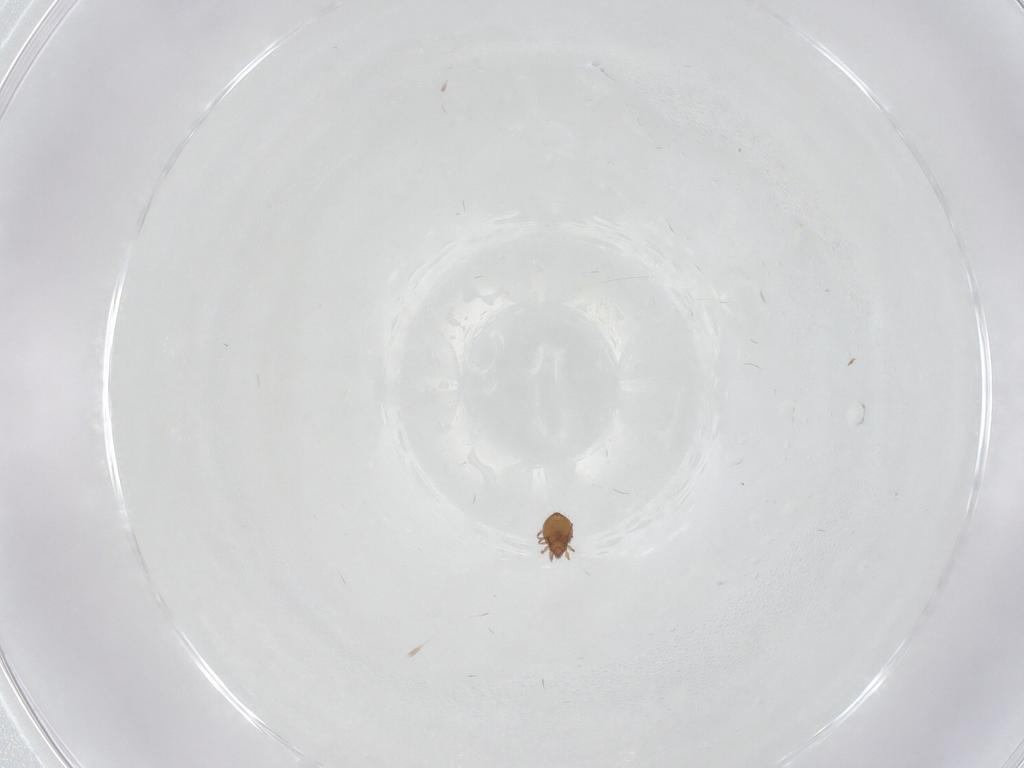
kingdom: Animalia
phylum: Arthropoda
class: Arachnida
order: Sarcoptiformes
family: Oribatulidae
